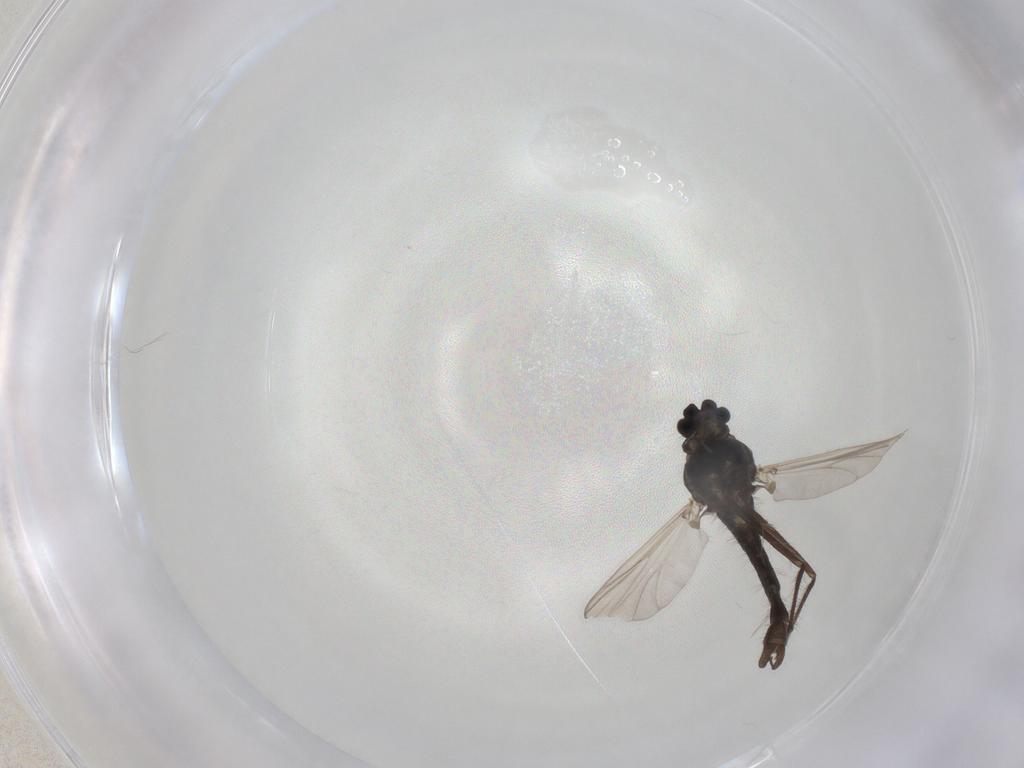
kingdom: Animalia
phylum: Arthropoda
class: Insecta
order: Diptera
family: Chironomidae
